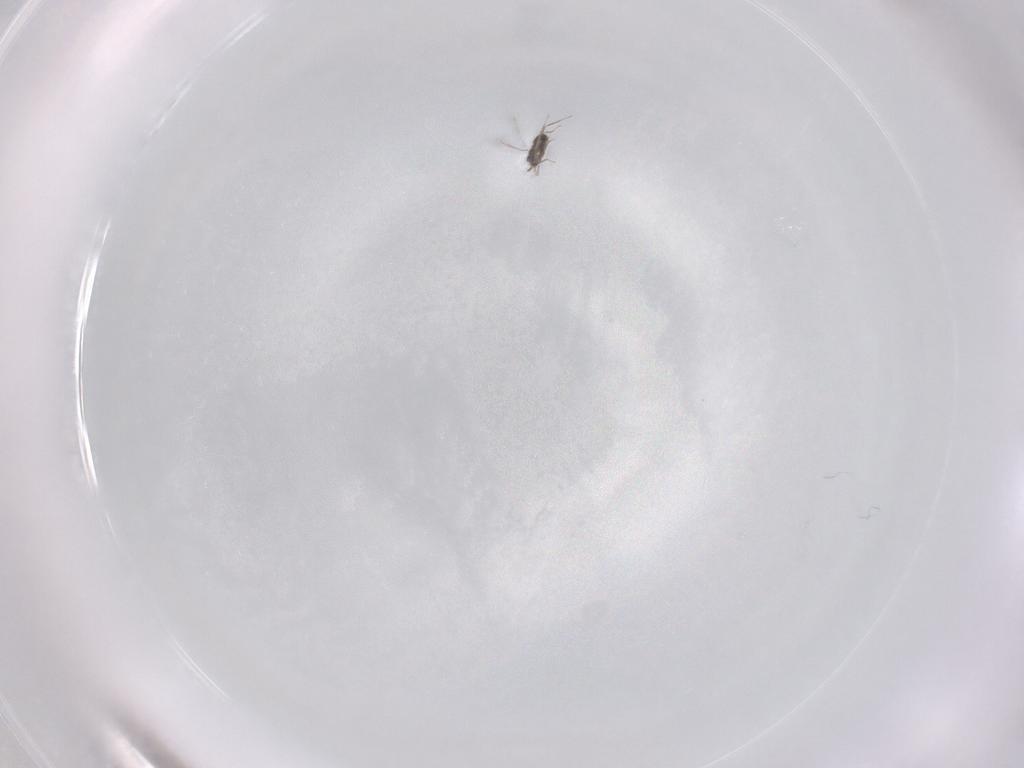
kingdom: Animalia
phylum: Arthropoda
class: Insecta
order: Hymenoptera
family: Mymaridae
